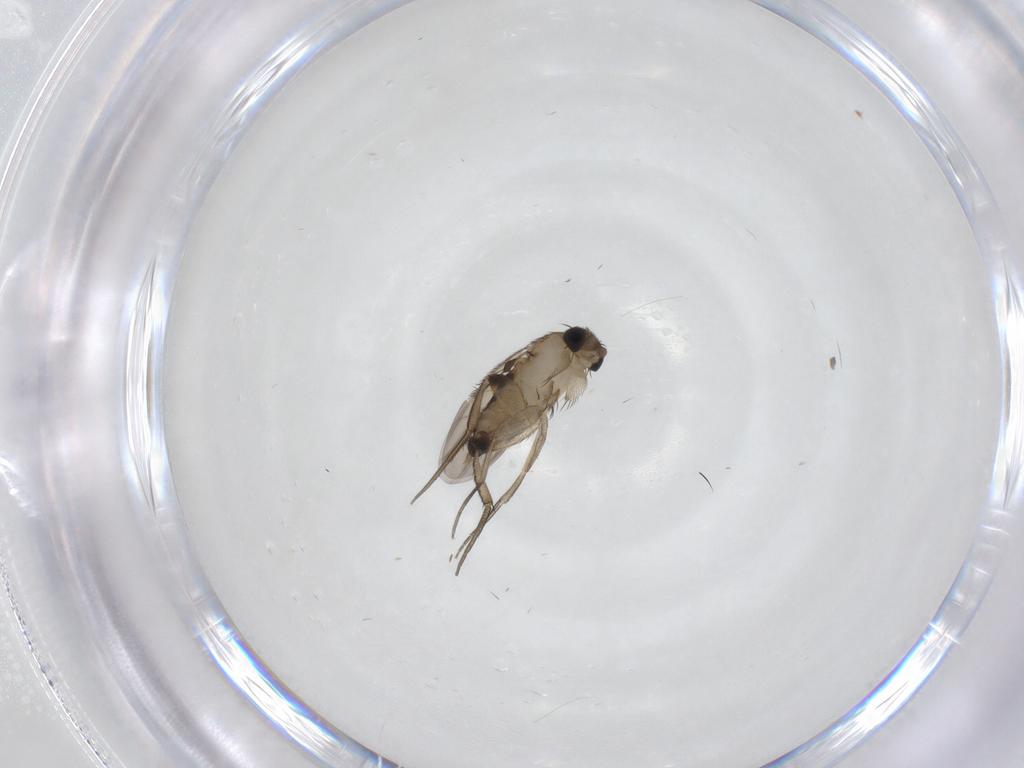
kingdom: Animalia
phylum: Arthropoda
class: Insecta
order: Diptera
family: Phoridae
